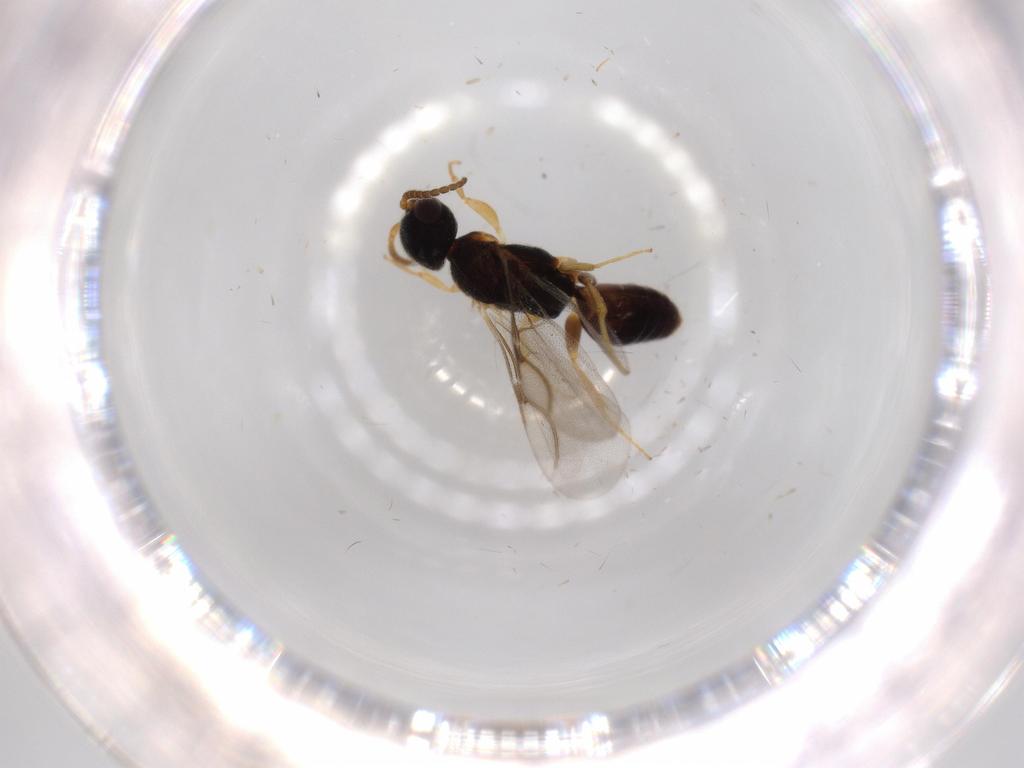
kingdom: Animalia
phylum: Arthropoda
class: Insecta
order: Hymenoptera
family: Bethylidae
